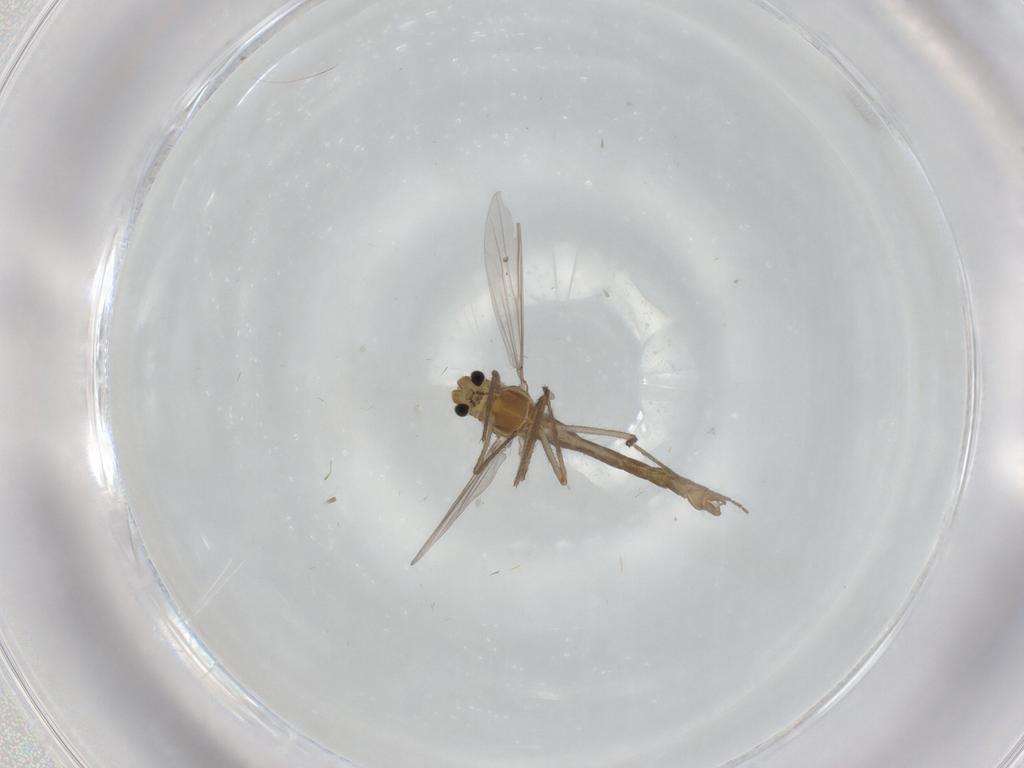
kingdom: Animalia
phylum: Arthropoda
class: Insecta
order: Diptera
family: Chironomidae
